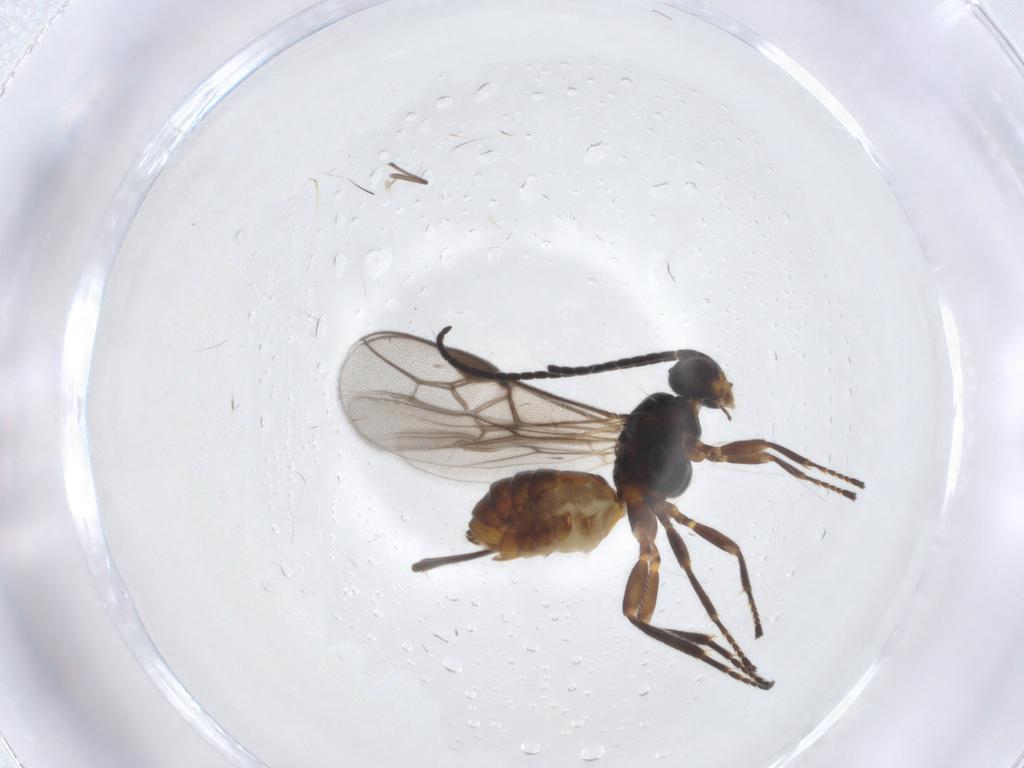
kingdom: Animalia
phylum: Arthropoda
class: Insecta
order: Hymenoptera
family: Braconidae
